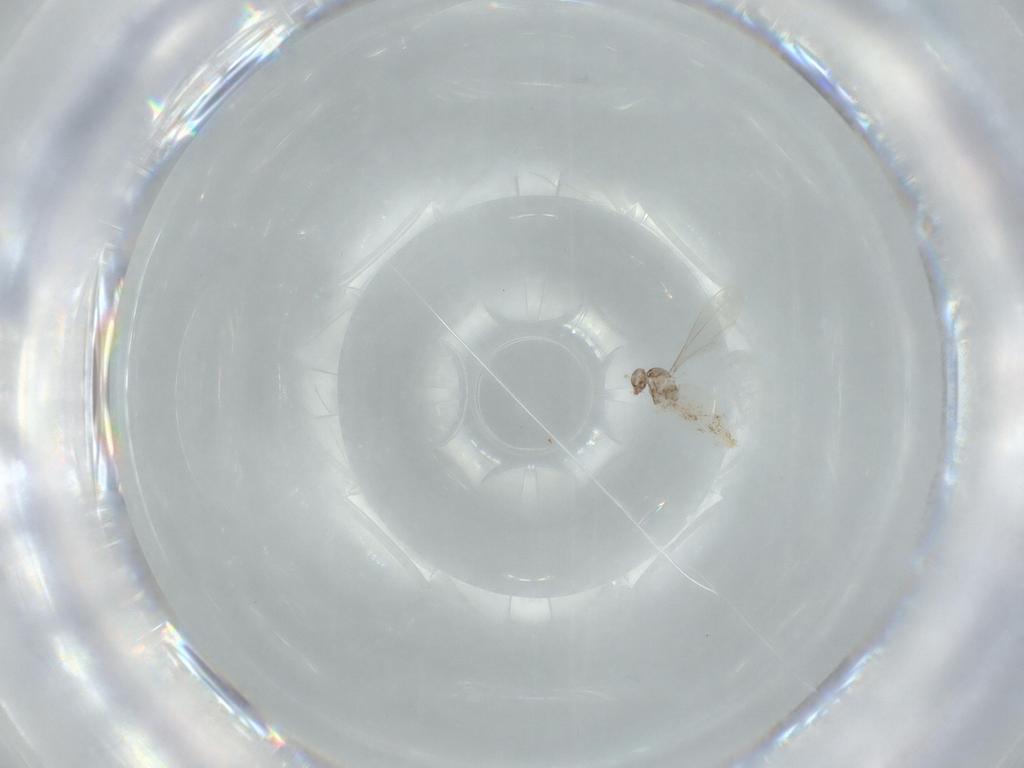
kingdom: Animalia
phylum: Arthropoda
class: Insecta
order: Diptera
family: Cecidomyiidae
